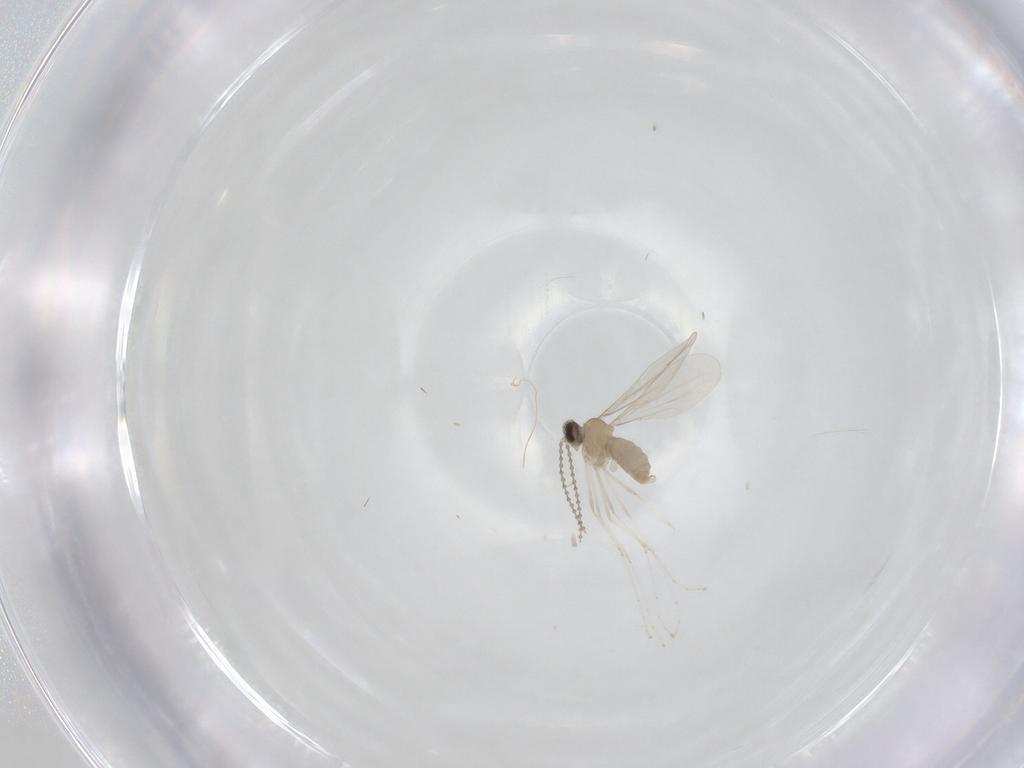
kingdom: Animalia
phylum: Arthropoda
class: Insecta
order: Diptera
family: Cecidomyiidae
